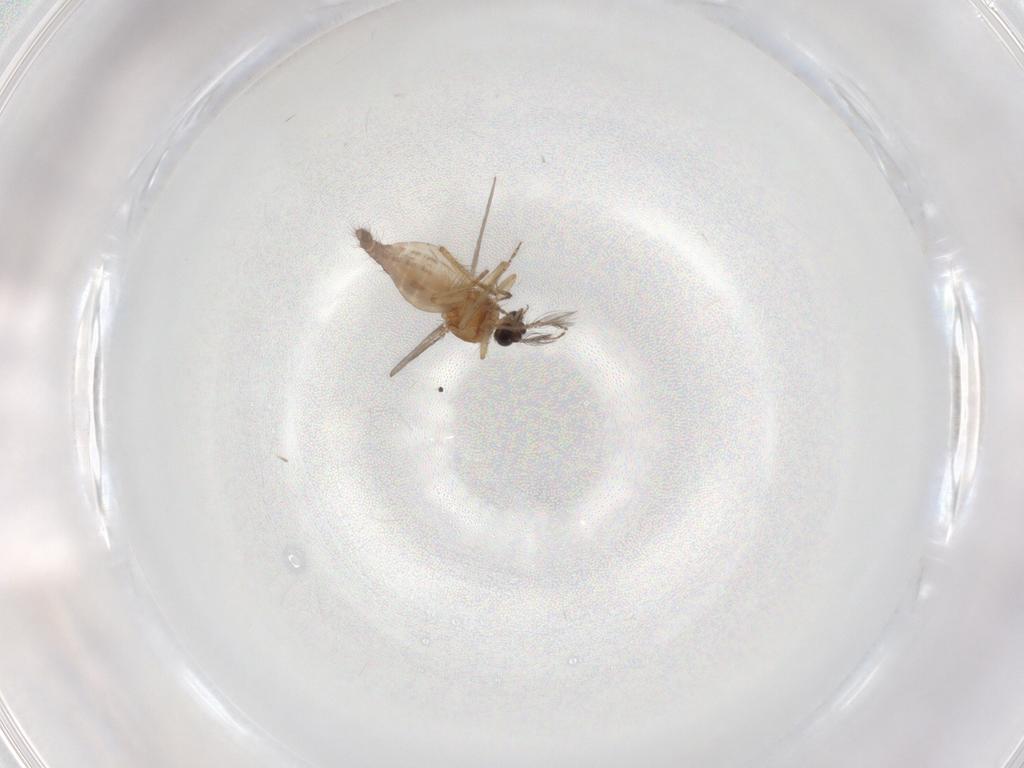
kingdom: Animalia
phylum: Arthropoda
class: Insecta
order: Diptera
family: Ceratopogonidae
